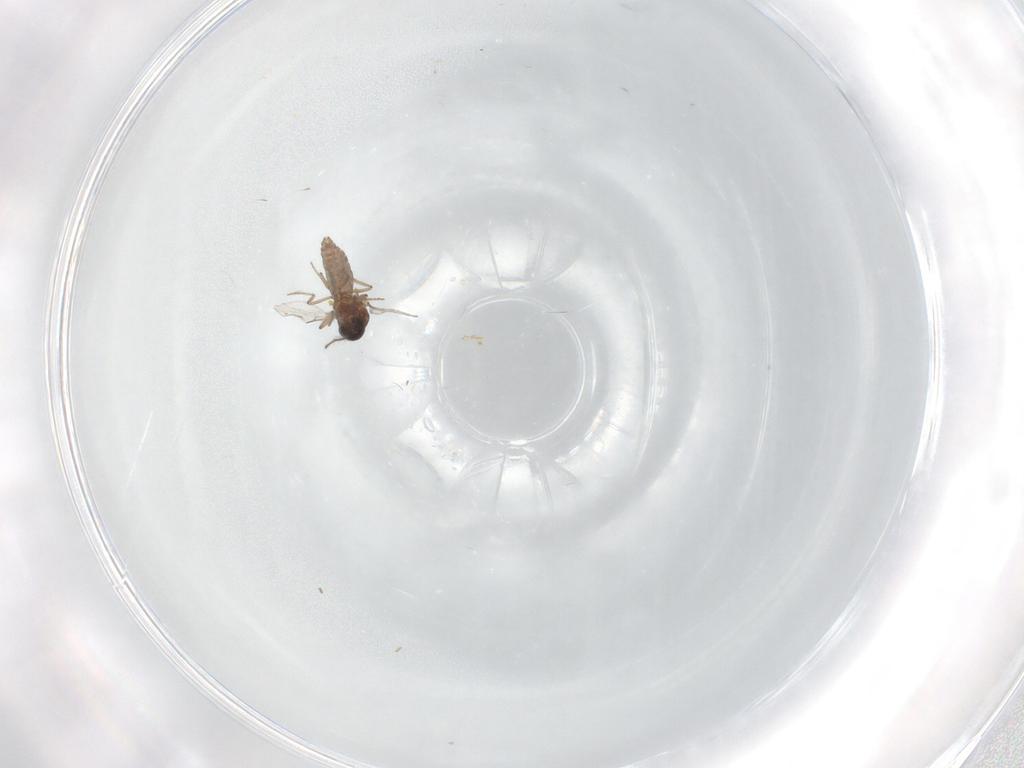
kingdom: Animalia
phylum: Arthropoda
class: Insecta
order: Diptera
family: Ceratopogonidae
